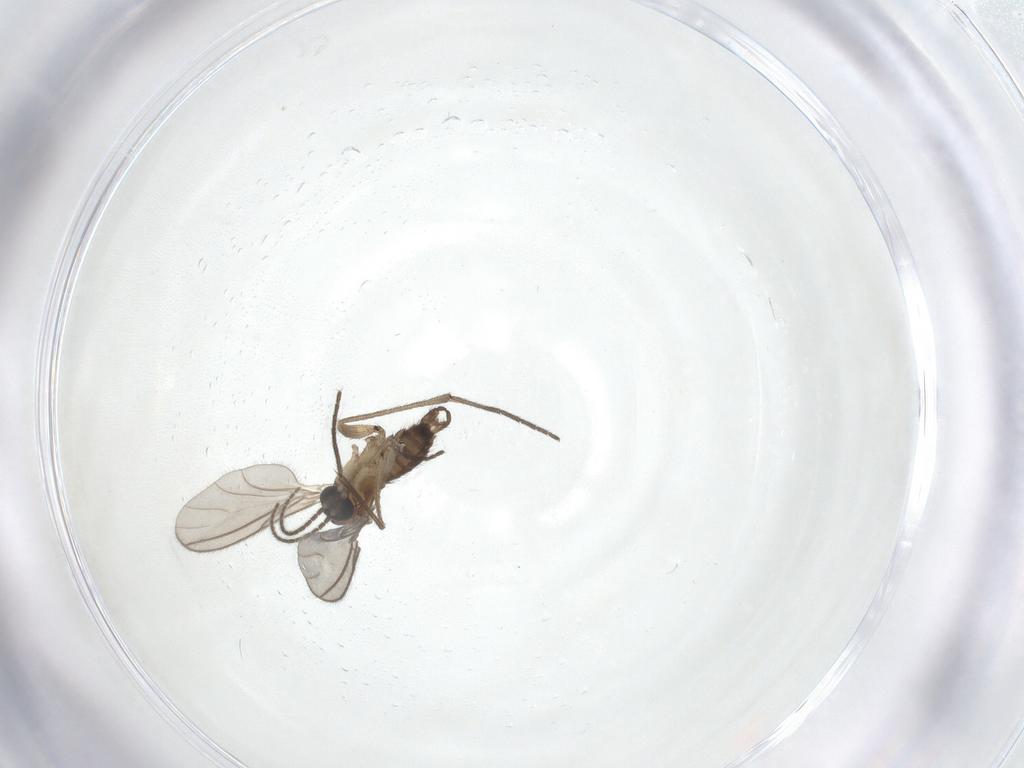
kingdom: Animalia
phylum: Arthropoda
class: Insecta
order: Diptera
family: Sciaridae
